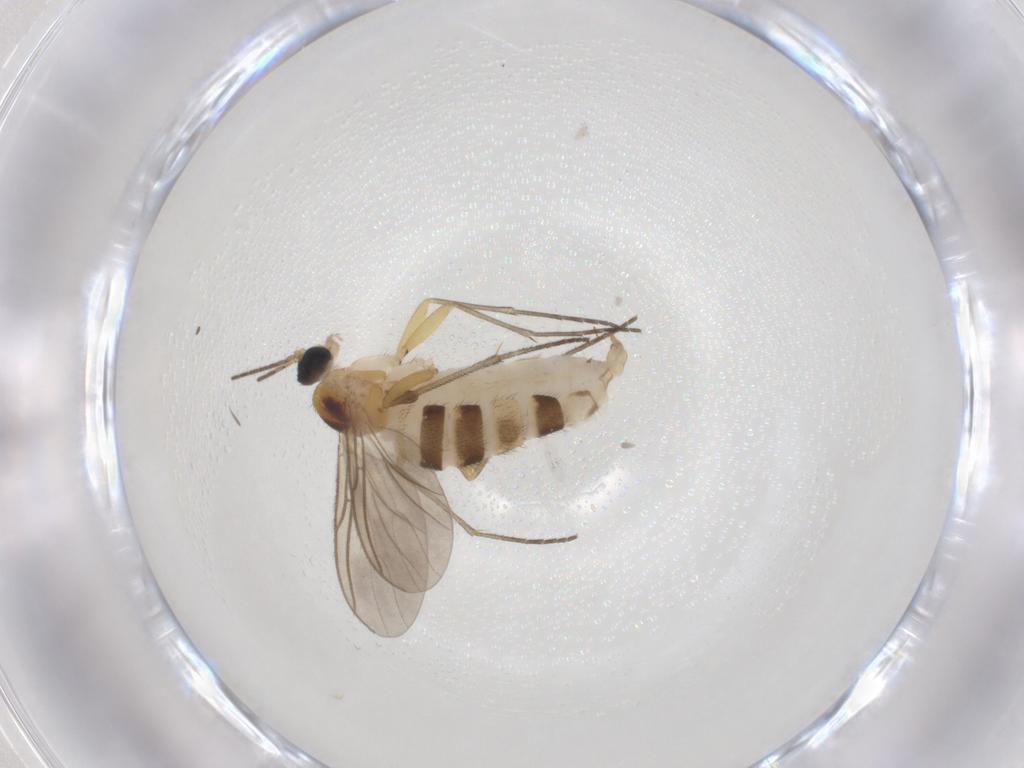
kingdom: Animalia
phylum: Arthropoda
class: Insecta
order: Diptera
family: Sciaridae
